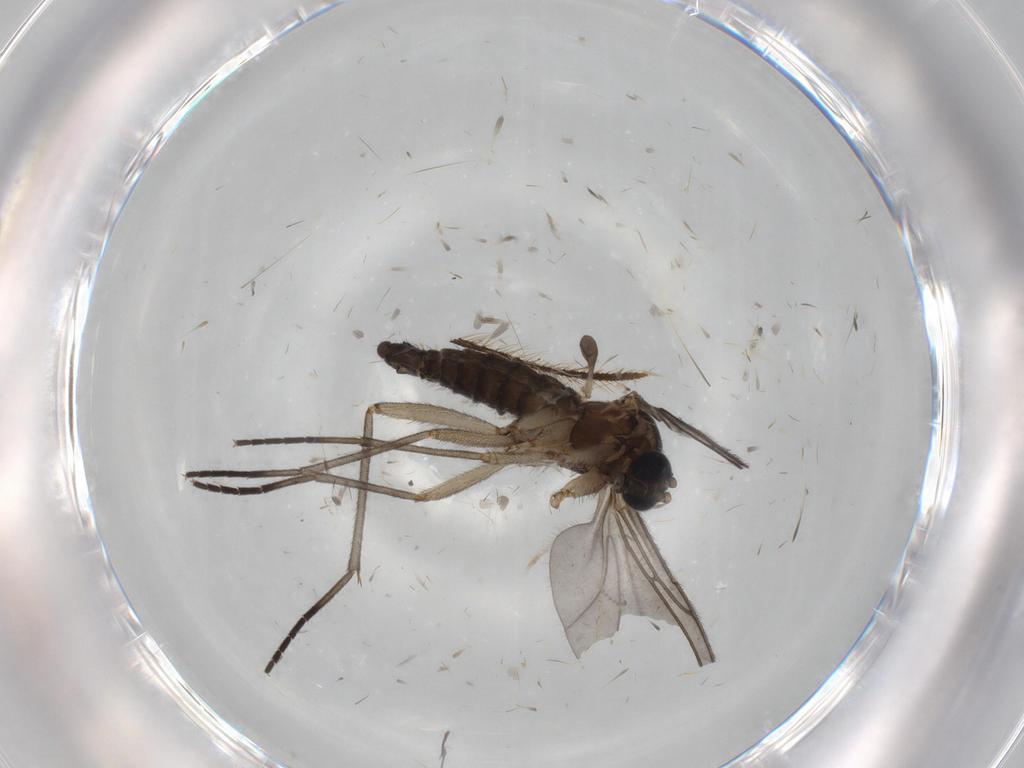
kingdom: Animalia
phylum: Arthropoda
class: Insecta
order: Diptera
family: Sciaridae
